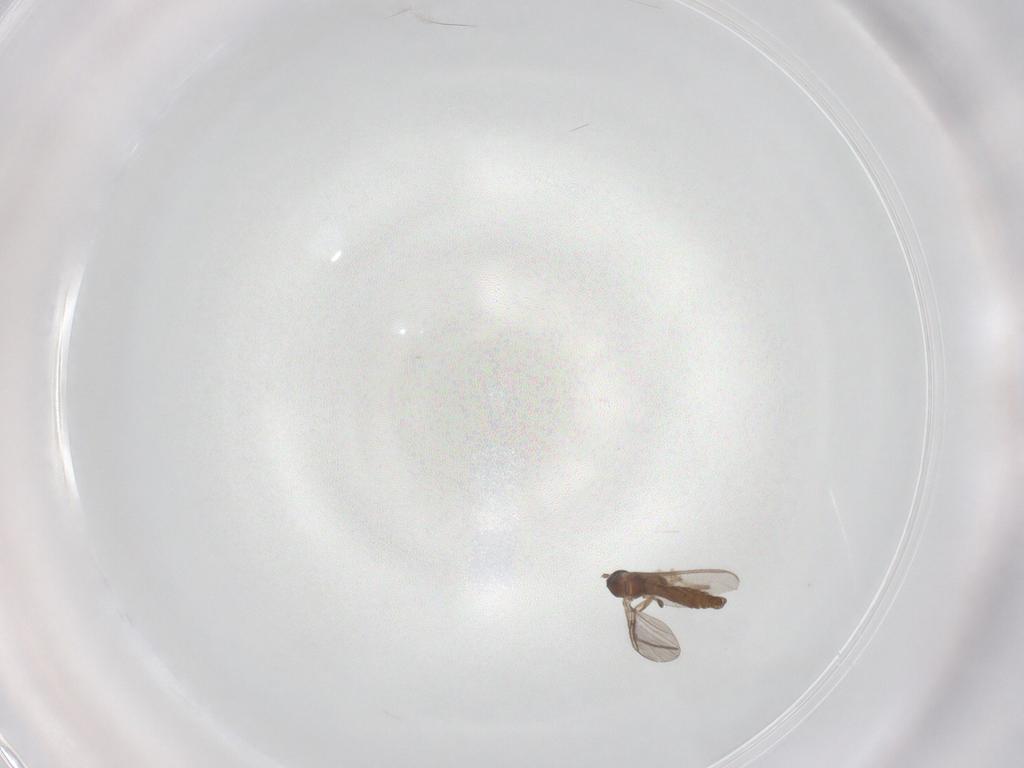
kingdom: Animalia
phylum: Arthropoda
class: Insecta
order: Diptera
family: Sciaridae
